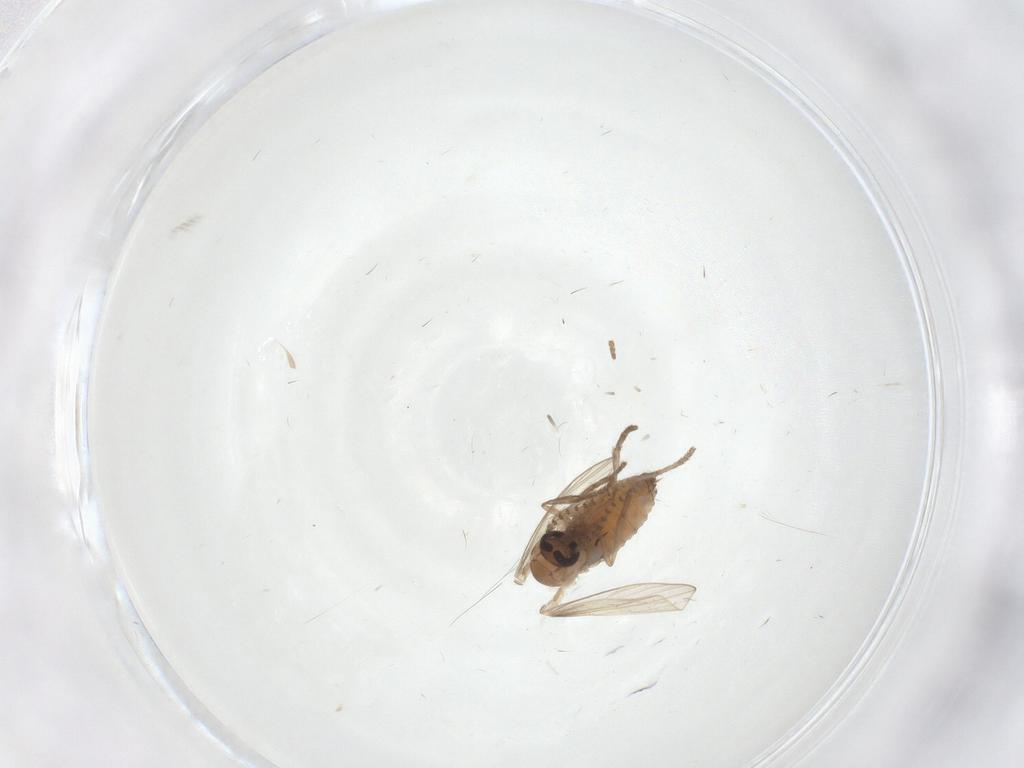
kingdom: Animalia
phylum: Arthropoda
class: Insecta
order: Diptera
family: Psychodidae
